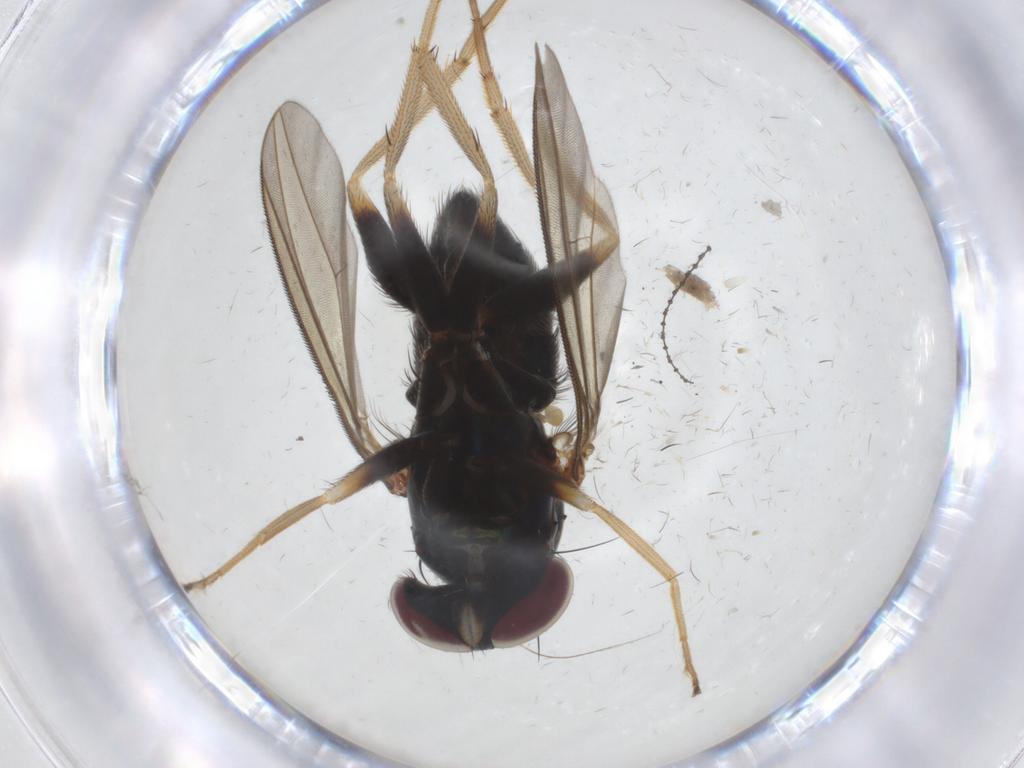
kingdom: Animalia
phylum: Arthropoda
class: Insecta
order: Diptera
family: Dolichopodidae
